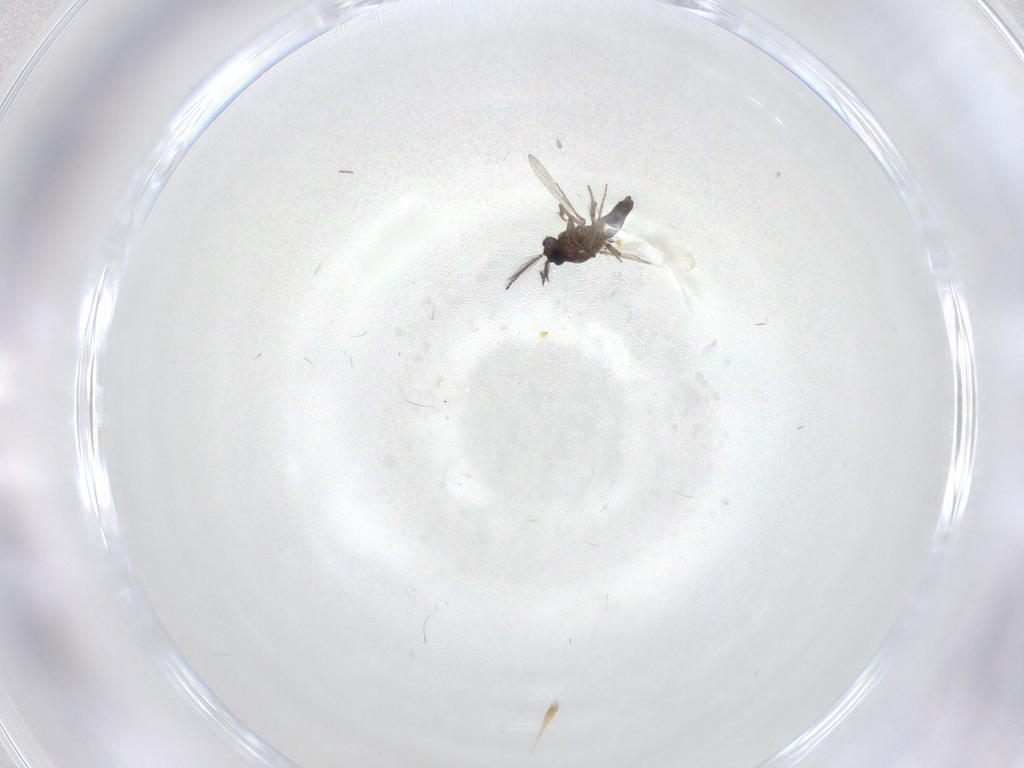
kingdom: Animalia
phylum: Arthropoda
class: Insecta
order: Diptera
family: Ceratopogonidae
